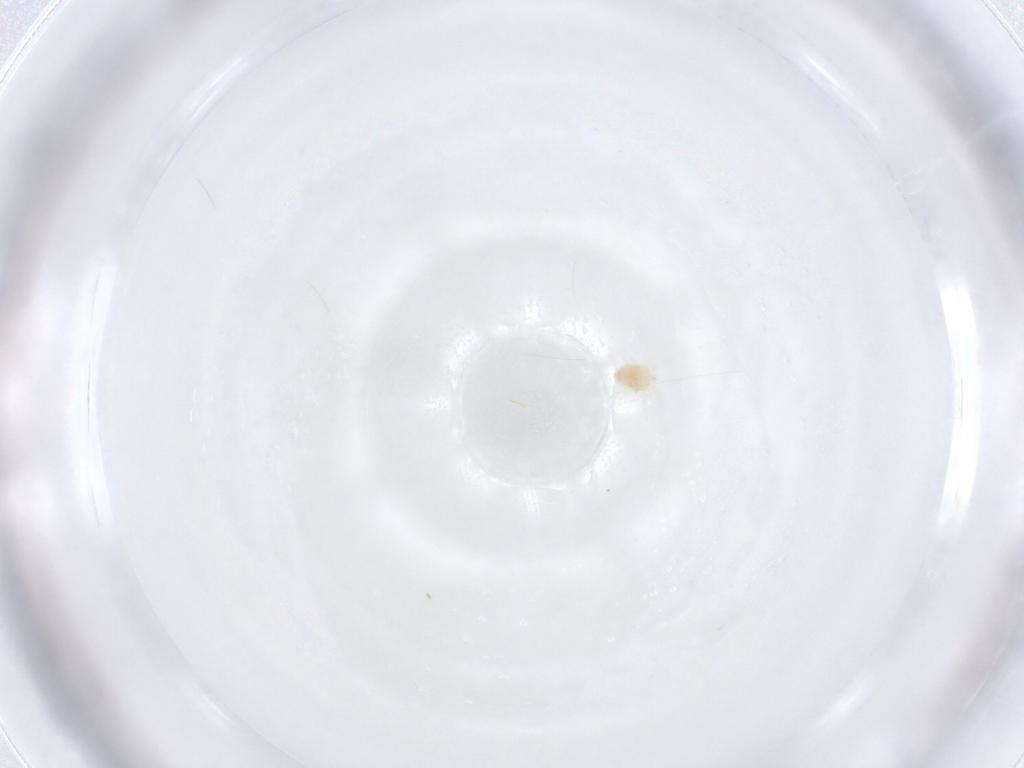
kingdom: Animalia
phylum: Arthropoda
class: Arachnida
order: Trombidiformes
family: Tetranychidae
